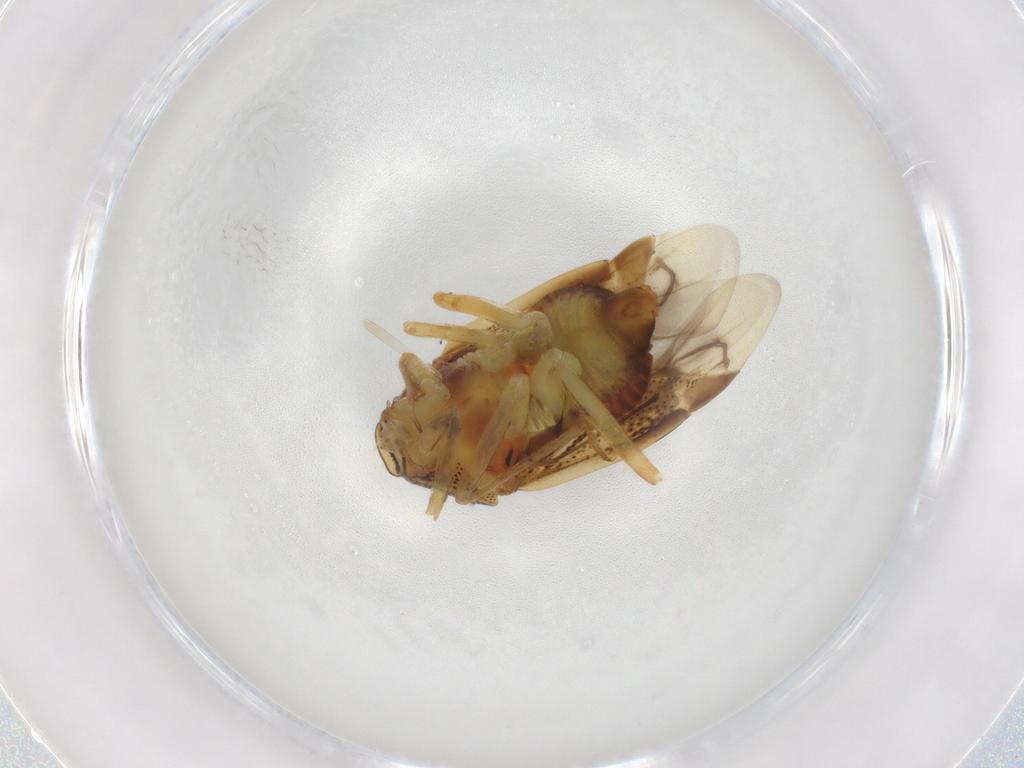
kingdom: Animalia
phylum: Arthropoda
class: Insecta
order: Hemiptera
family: Miridae
